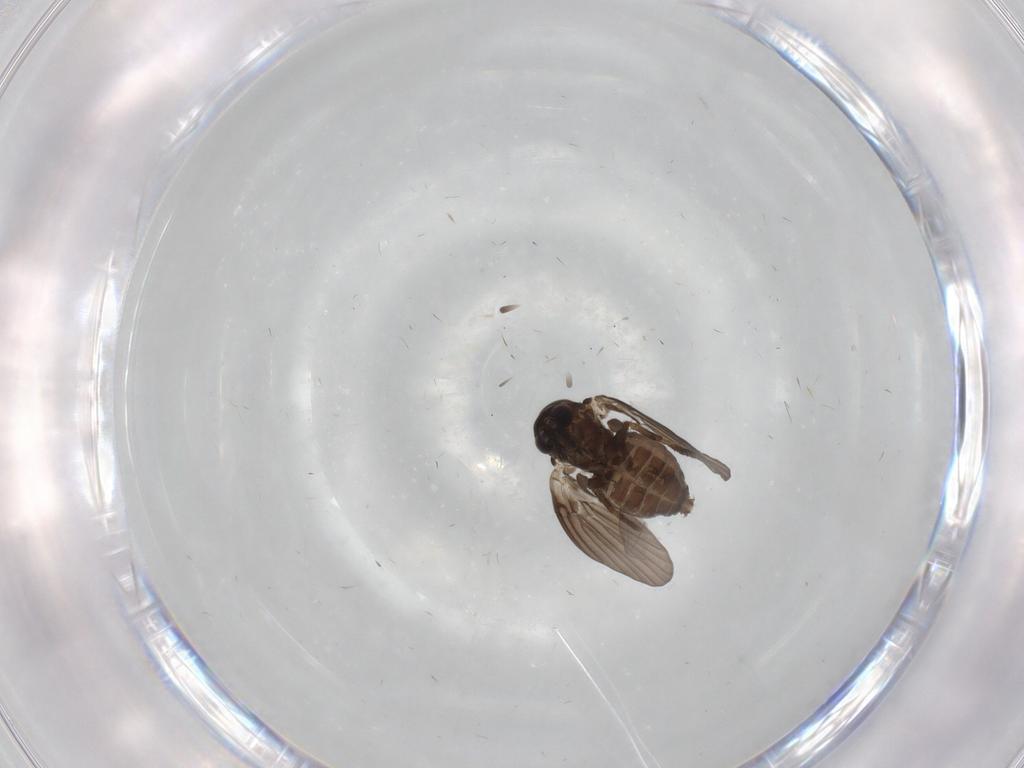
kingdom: Animalia
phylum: Arthropoda
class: Insecta
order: Diptera
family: Psychodidae
